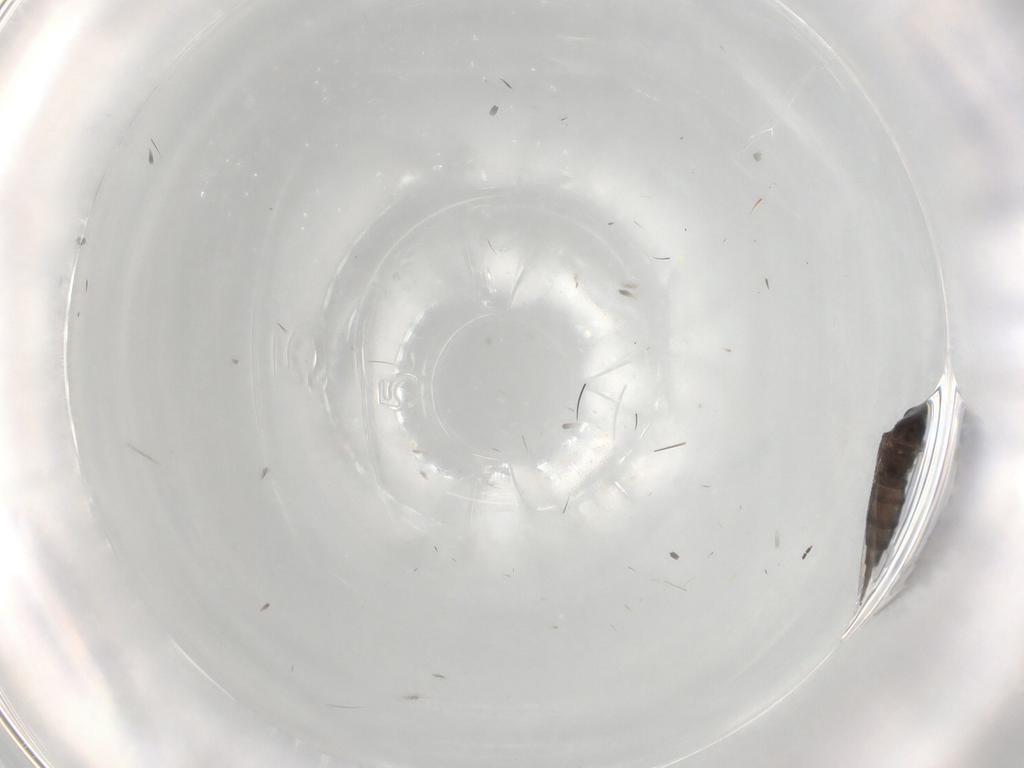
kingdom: Animalia
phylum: Arthropoda
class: Insecta
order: Diptera
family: Sciaridae
